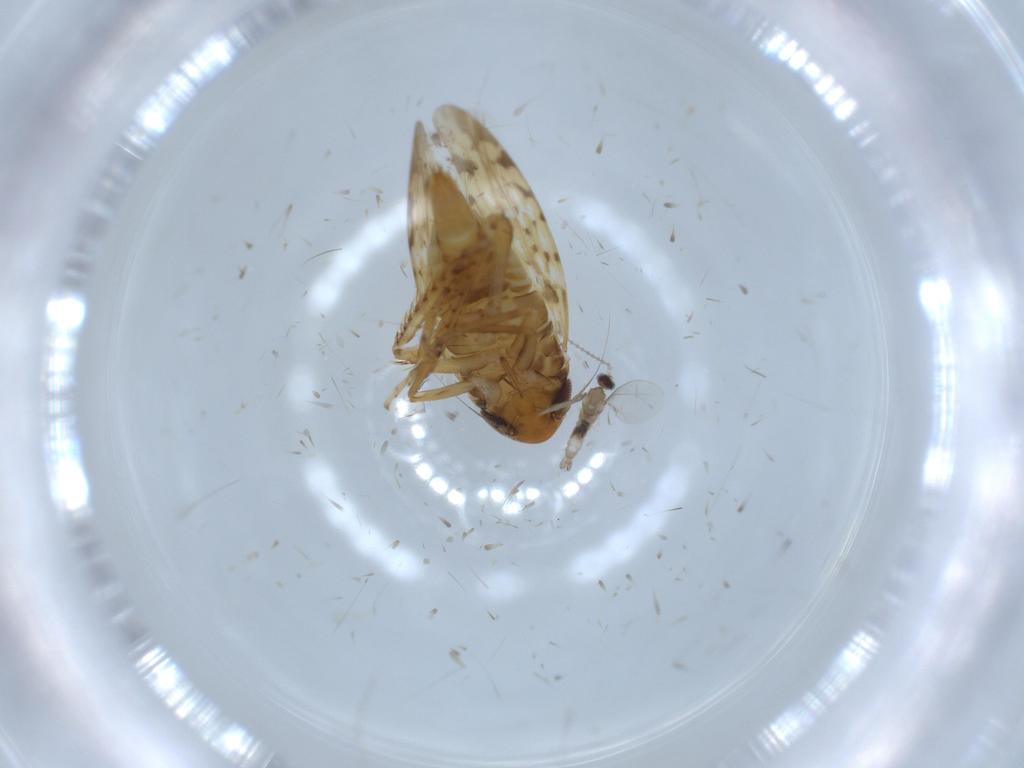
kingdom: Animalia
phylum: Arthropoda
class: Insecta
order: Hemiptera
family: Cicadellidae
